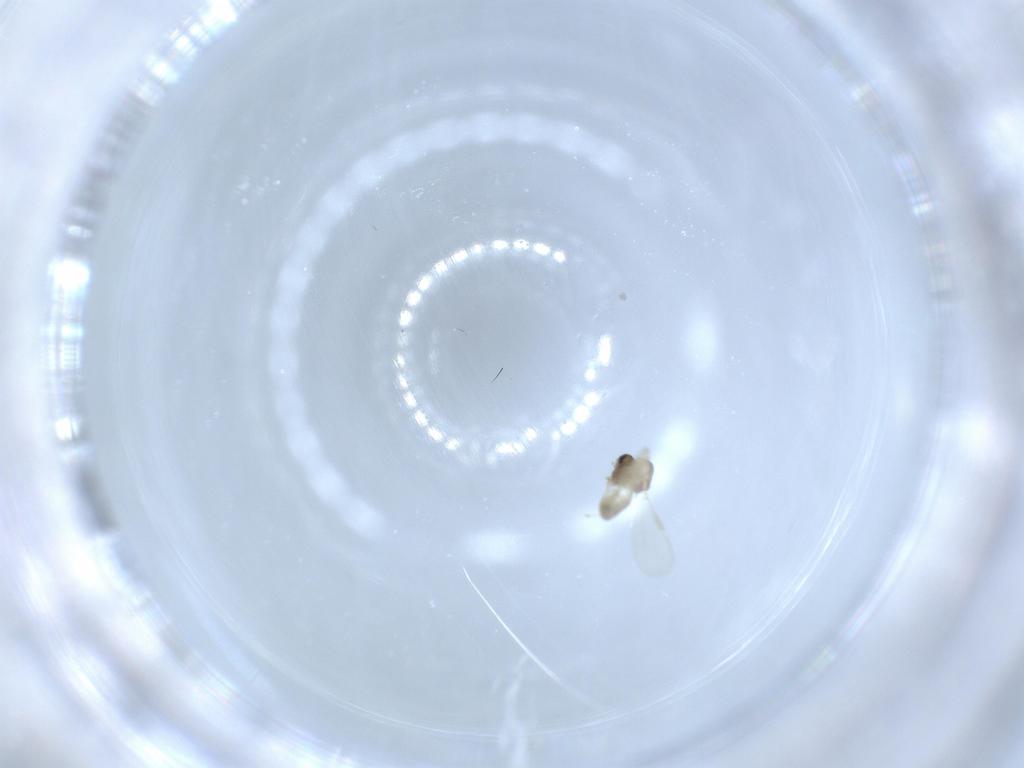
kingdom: Animalia
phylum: Arthropoda
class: Insecta
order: Diptera
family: Chironomidae
